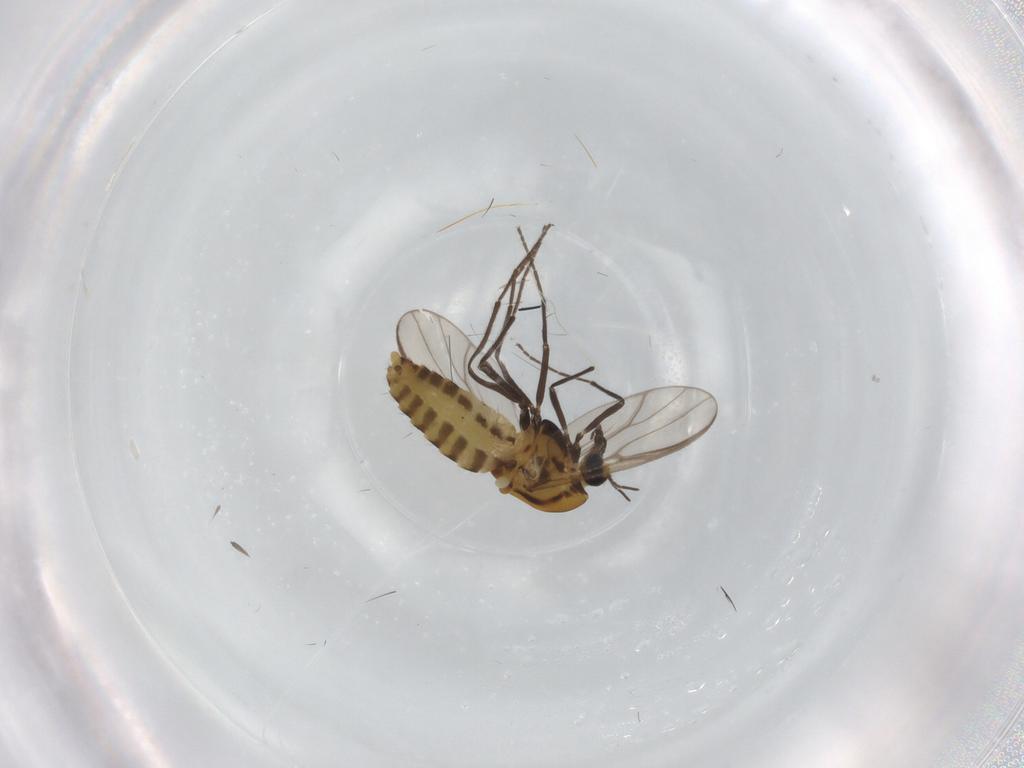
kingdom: Animalia
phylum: Arthropoda
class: Insecta
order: Diptera
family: Chironomidae
